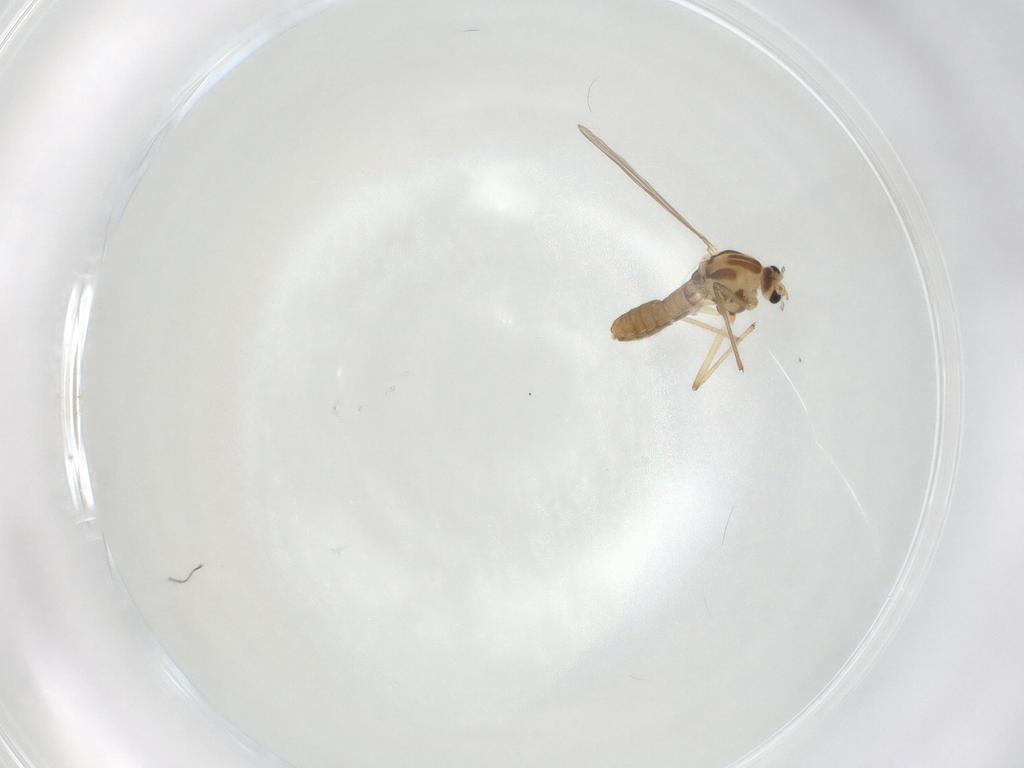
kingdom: Animalia
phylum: Arthropoda
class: Insecta
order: Diptera
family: Chironomidae
